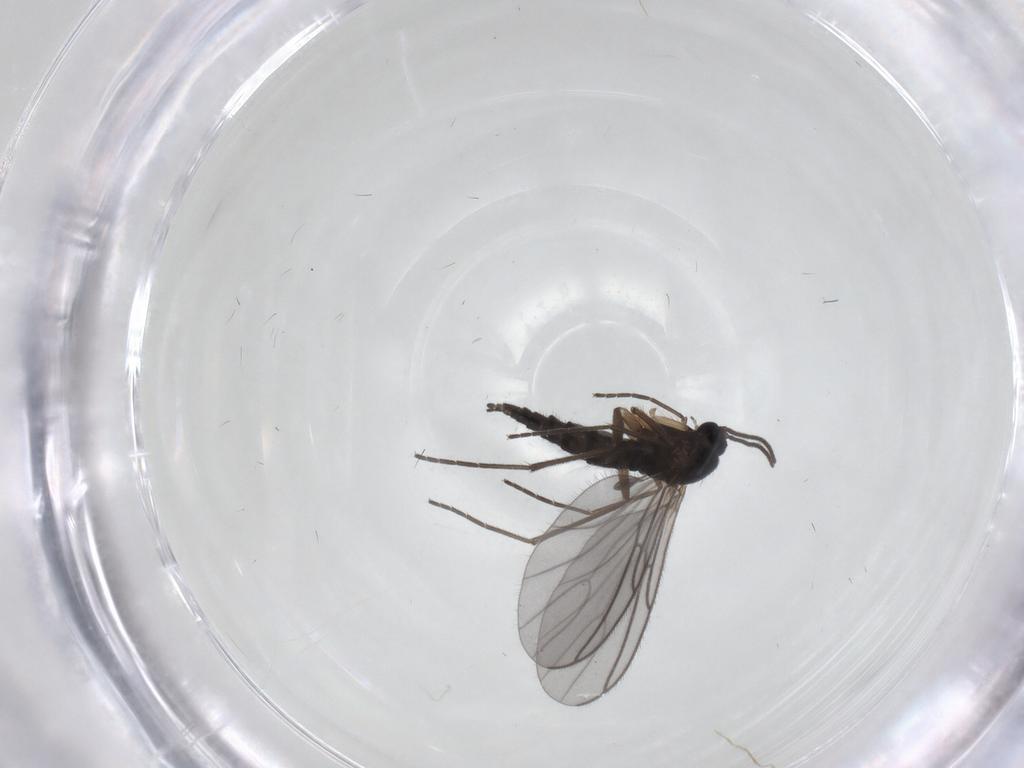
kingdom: Animalia
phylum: Arthropoda
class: Insecta
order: Diptera
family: Sciaridae
